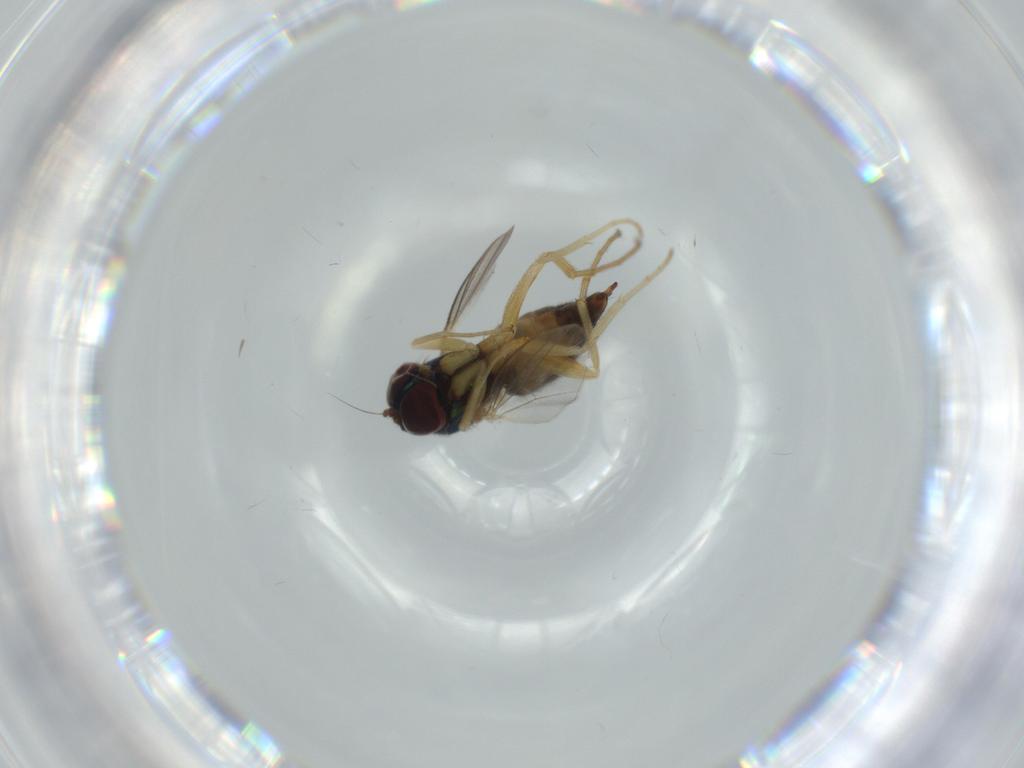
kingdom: Animalia
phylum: Arthropoda
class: Insecta
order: Diptera
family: Dolichopodidae
